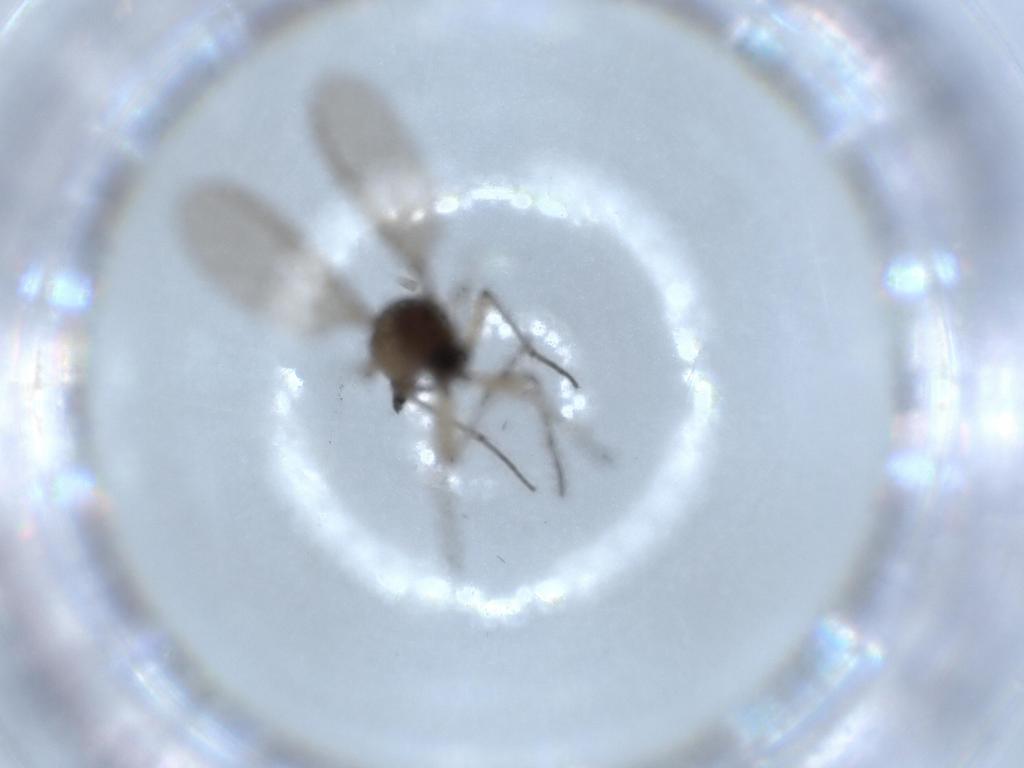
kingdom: Animalia
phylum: Arthropoda
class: Insecta
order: Diptera
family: Sciaridae
